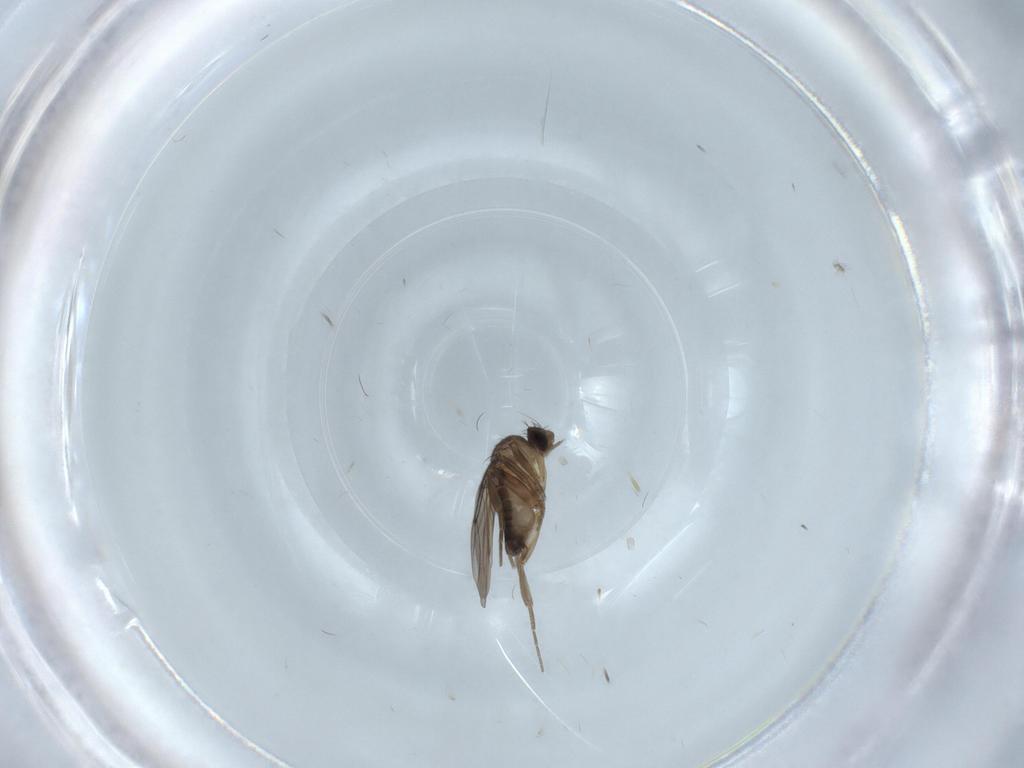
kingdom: Animalia
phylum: Arthropoda
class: Insecta
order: Diptera
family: Phoridae
